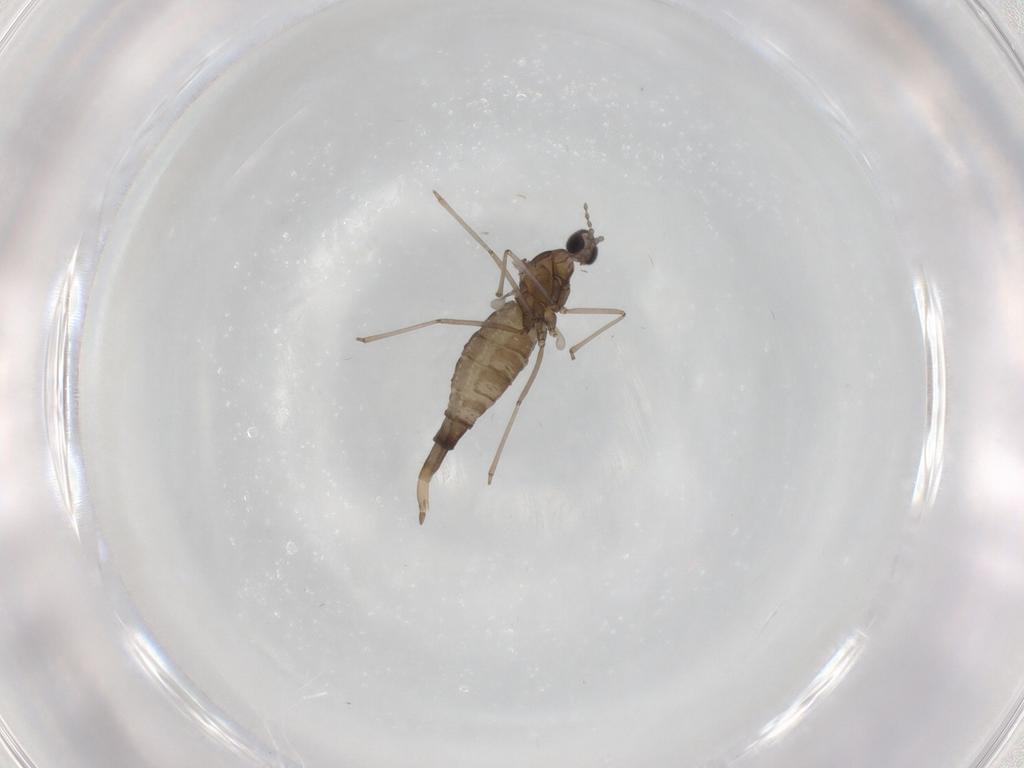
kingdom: Animalia
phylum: Arthropoda
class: Insecta
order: Diptera
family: Cecidomyiidae
